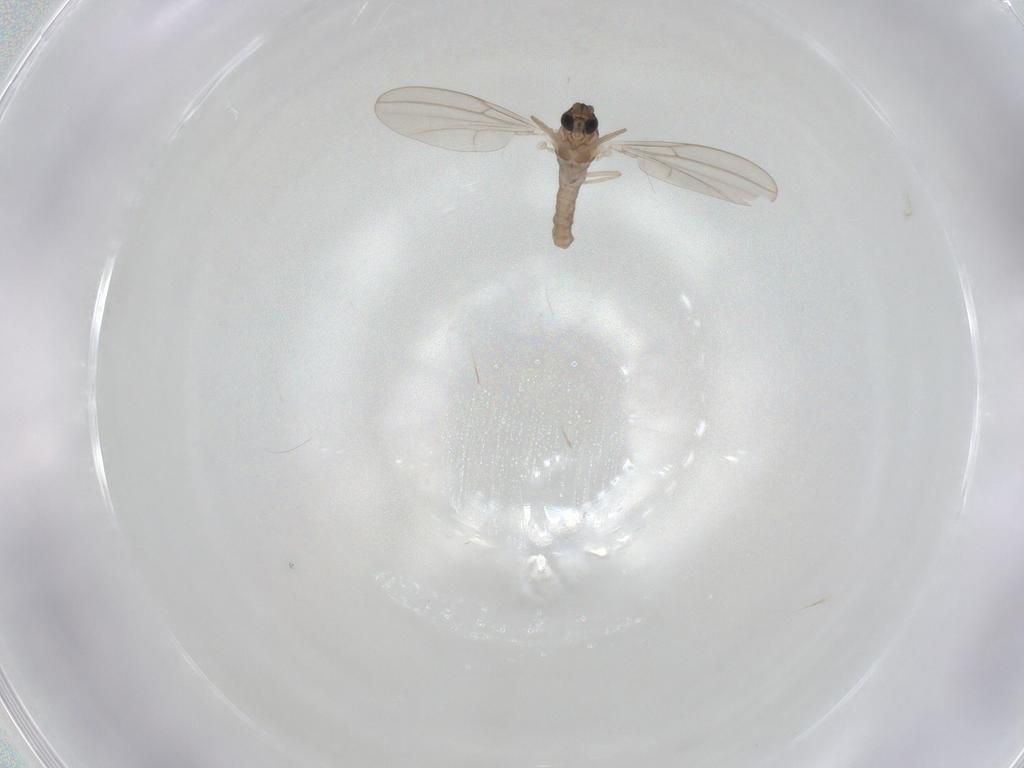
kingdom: Animalia
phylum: Arthropoda
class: Insecta
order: Diptera
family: Cecidomyiidae
